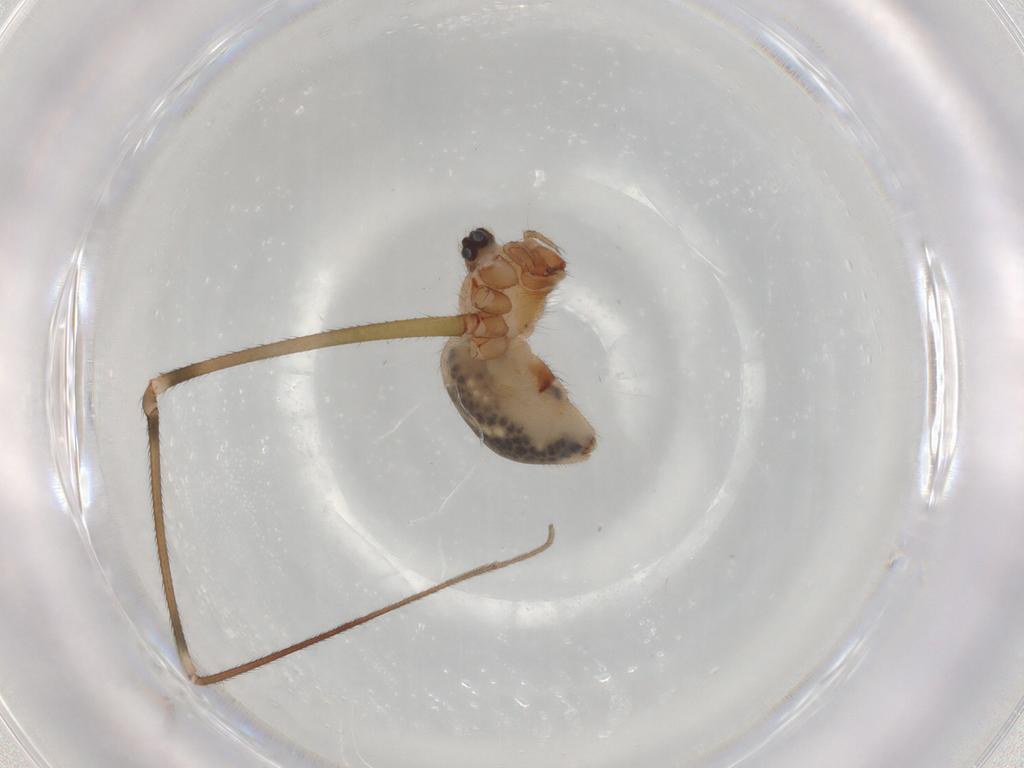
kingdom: Animalia
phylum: Arthropoda
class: Arachnida
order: Araneae
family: Pholcidae
